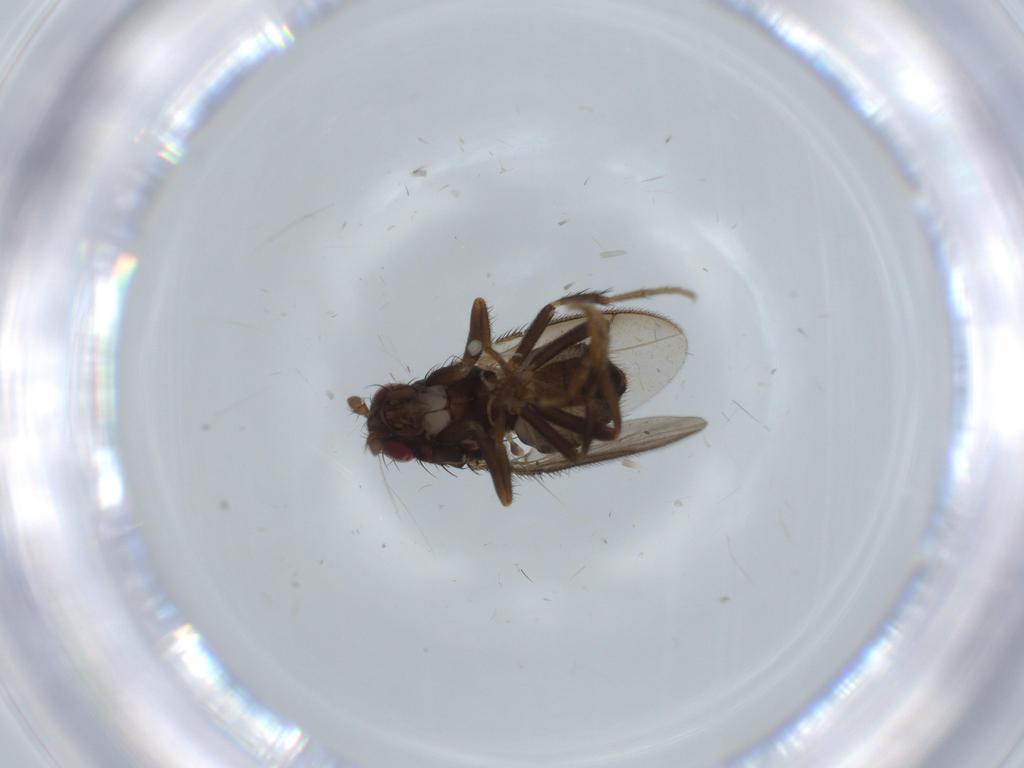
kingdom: Animalia
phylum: Arthropoda
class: Insecta
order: Diptera
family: Sphaeroceridae
